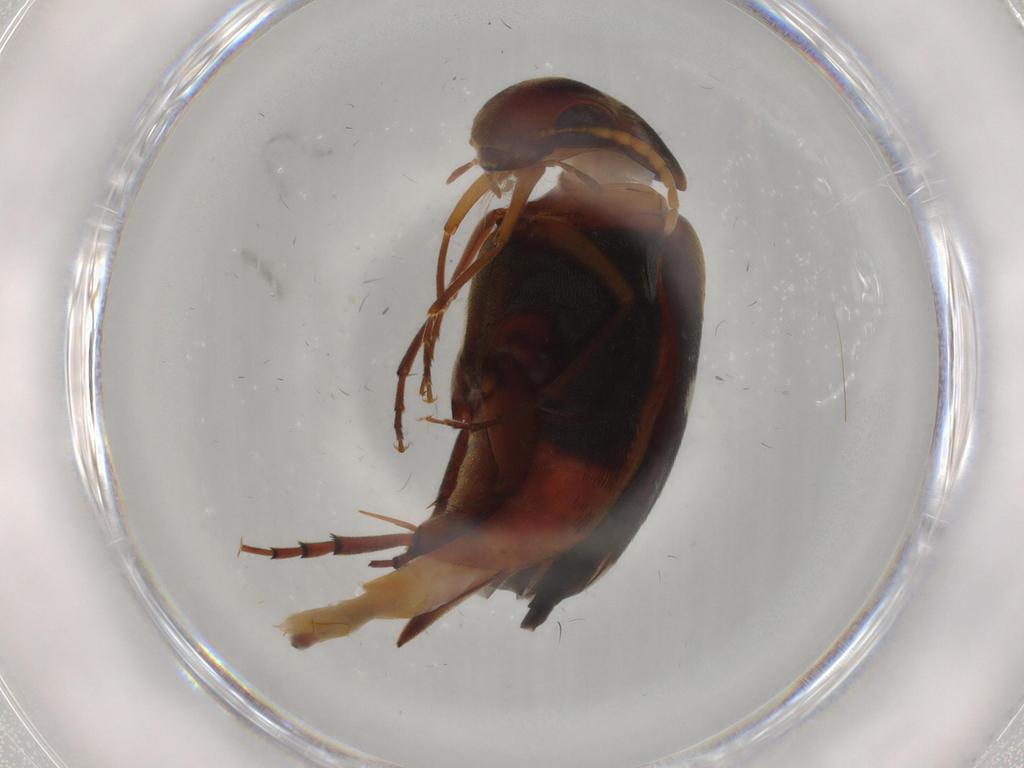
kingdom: Animalia
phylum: Arthropoda
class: Insecta
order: Coleoptera
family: Mordellidae
